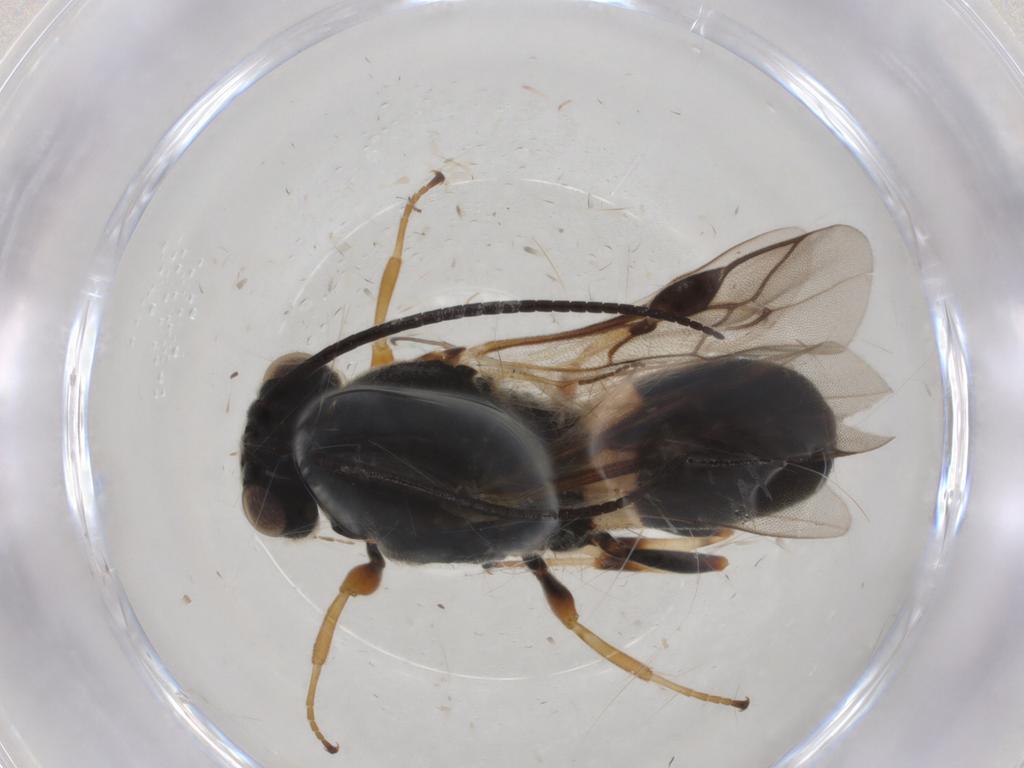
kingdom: Animalia
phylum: Arthropoda
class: Insecta
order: Hymenoptera
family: Braconidae
